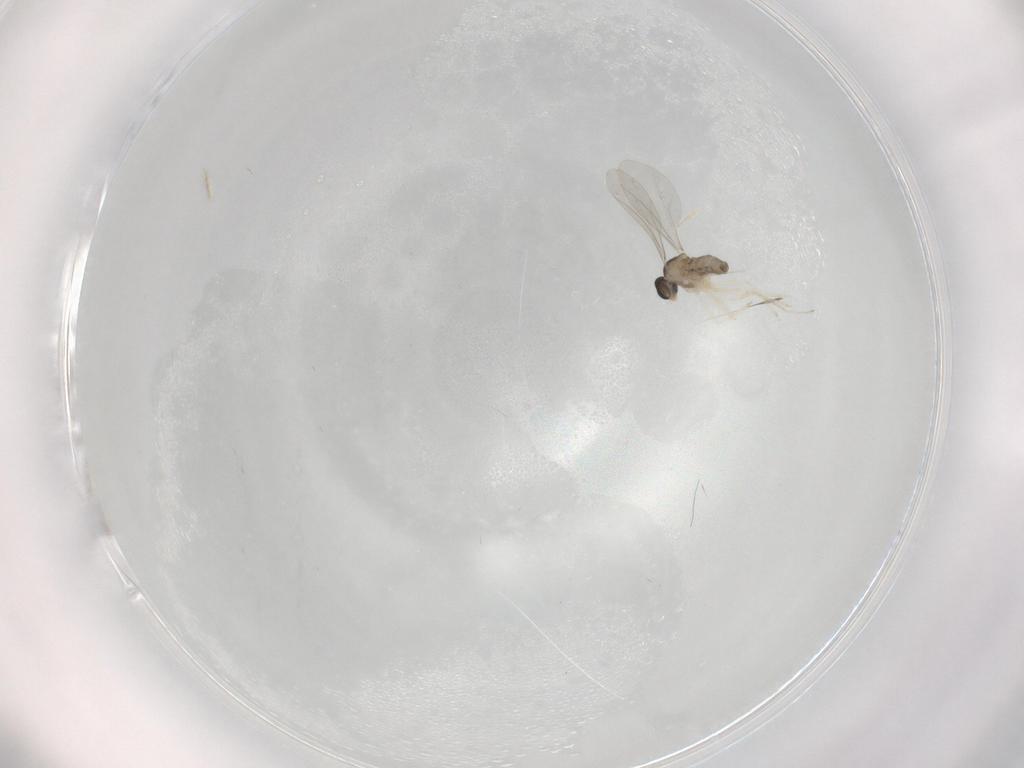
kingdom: Animalia
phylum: Arthropoda
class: Insecta
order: Diptera
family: Cecidomyiidae
